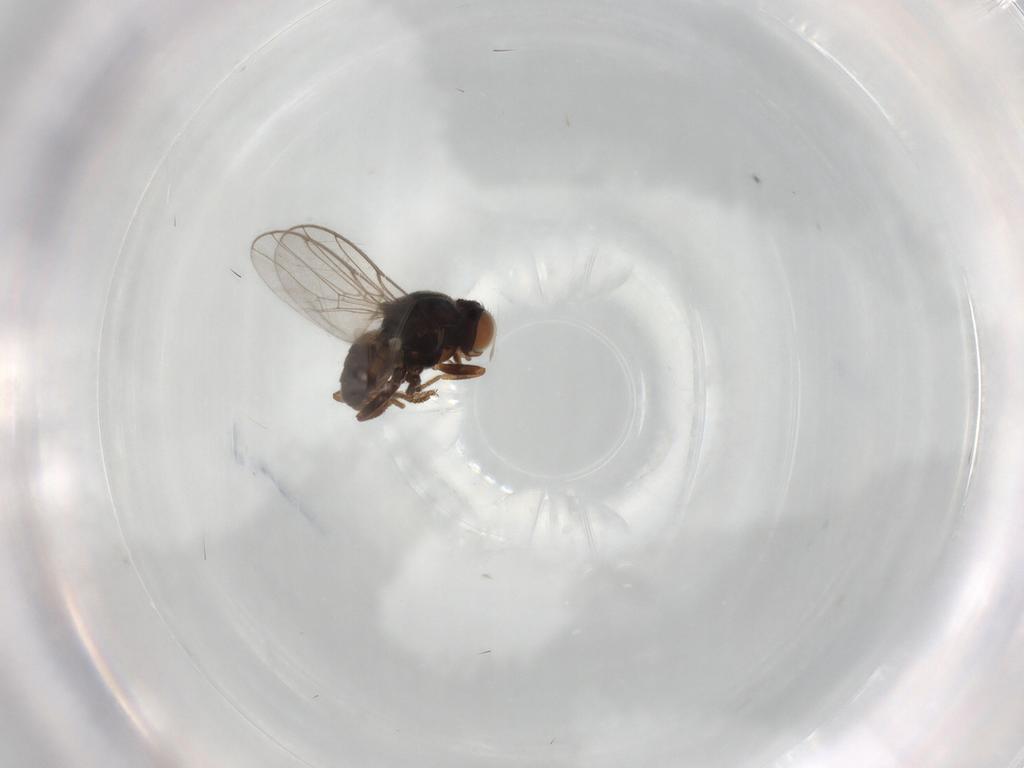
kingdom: Animalia
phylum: Arthropoda
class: Insecta
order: Diptera
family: Chloropidae
